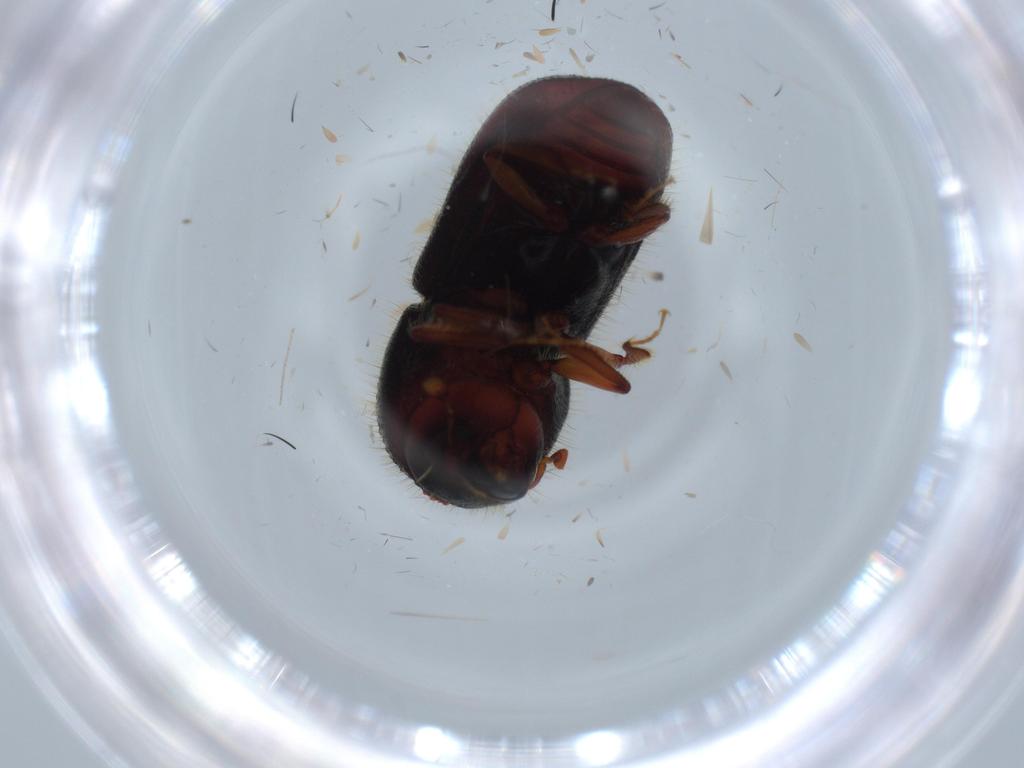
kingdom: Animalia
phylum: Arthropoda
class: Insecta
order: Coleoptera
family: Curculionidae
